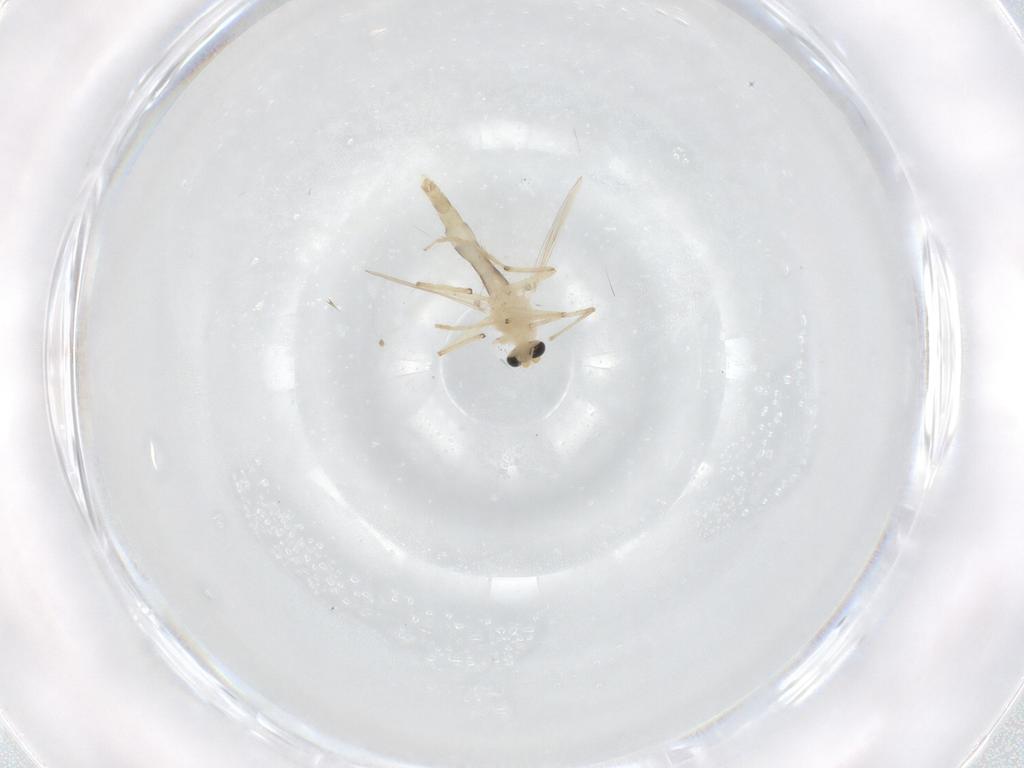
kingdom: Animalia
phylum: Arthropoda
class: Insecta
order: Diptera
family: Chironomidae
